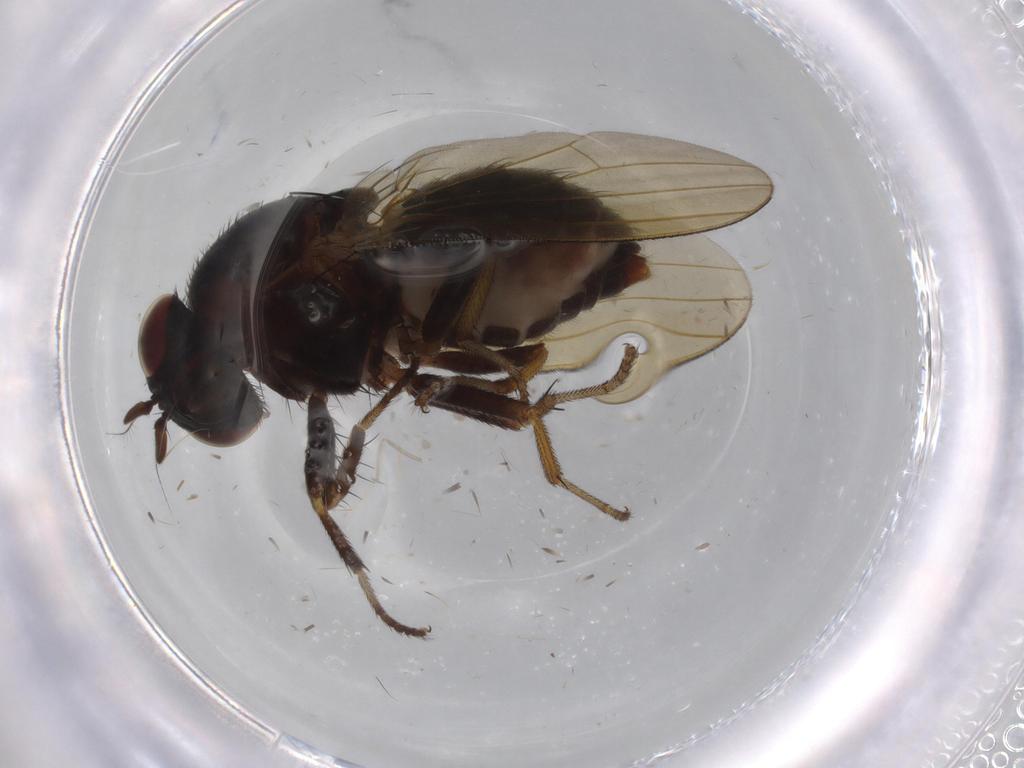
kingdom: Animalia
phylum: Arthropoda
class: Insecta
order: Diptera
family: Cecidomyiidae
